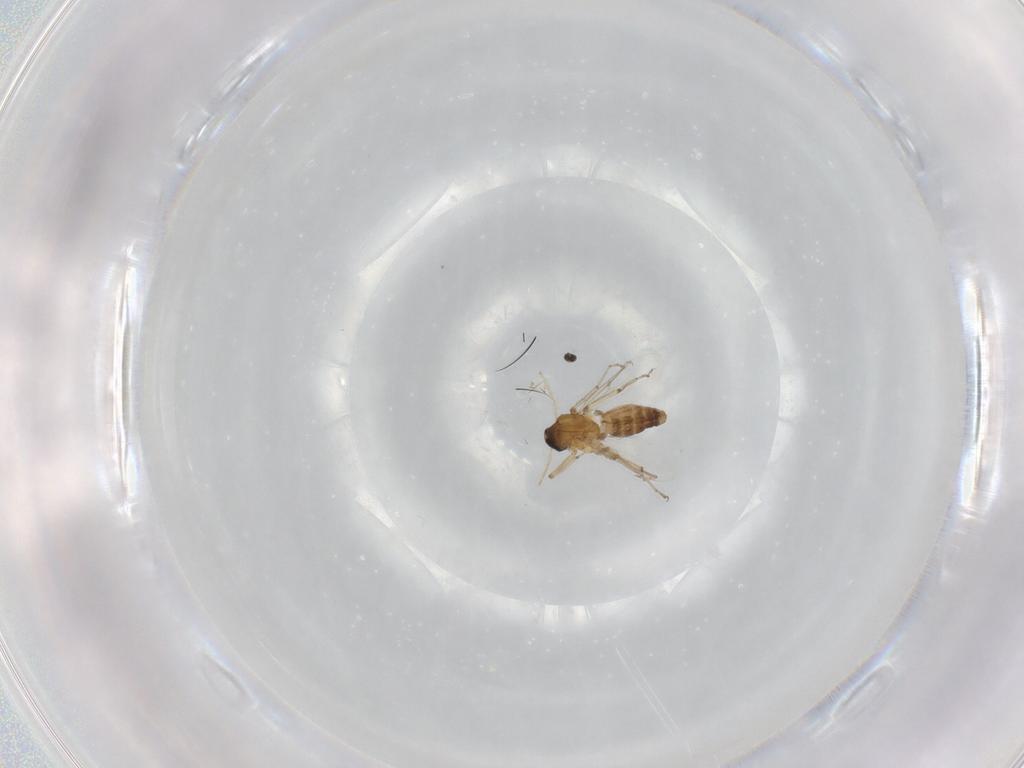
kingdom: Animalia
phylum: Arthropoda
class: Insecta
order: Diptera
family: Ceratopogonidae
